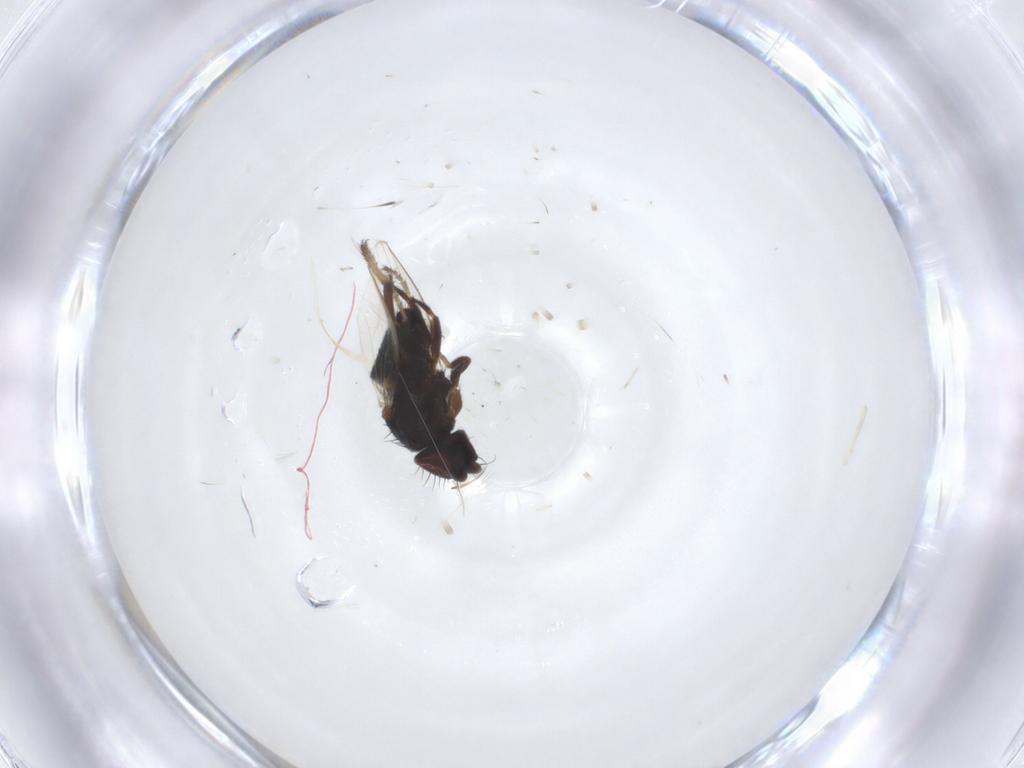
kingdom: Animalia
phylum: Arthropoda
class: Insecta
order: Diptera
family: Milichiidae
